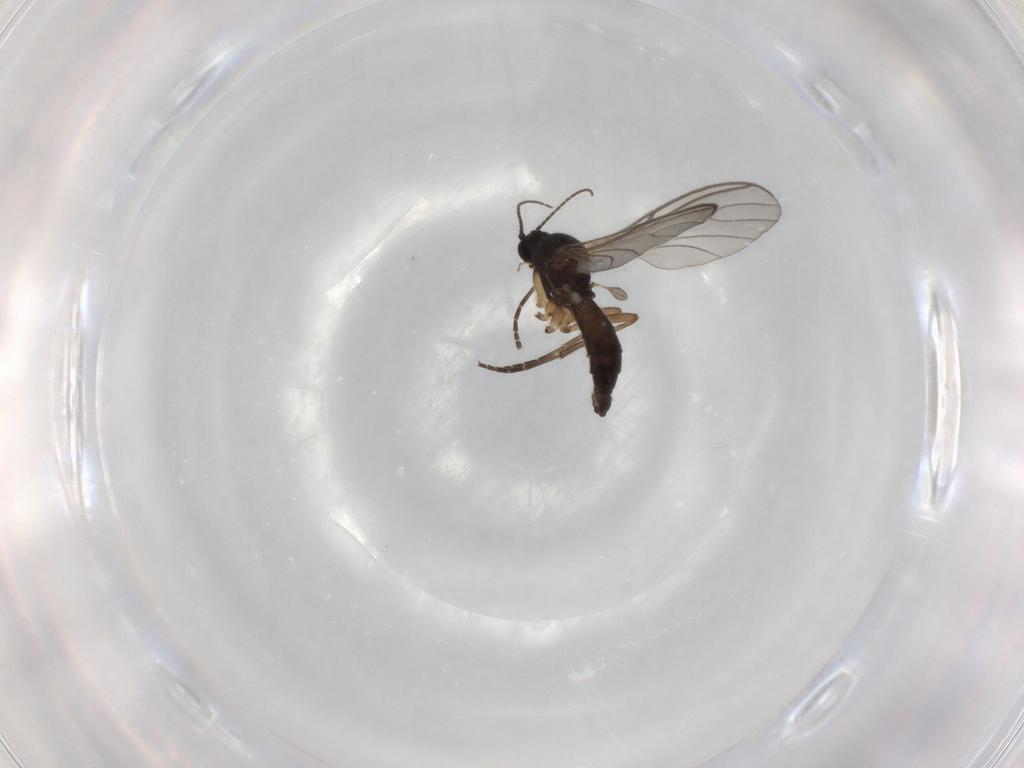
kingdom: Animalia
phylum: Arthropoda
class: Insecta
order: Diptera
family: Sciaridae
